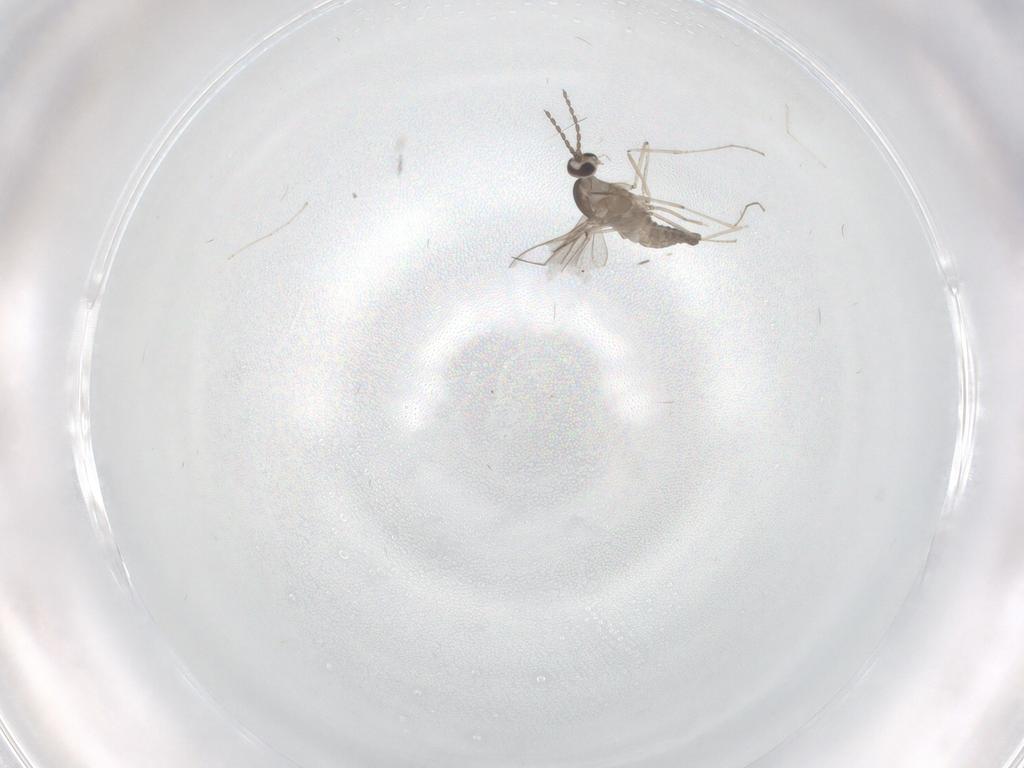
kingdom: Animalia
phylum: Arthropoda
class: Insecta
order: Diptera
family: Cecidomyiidae
